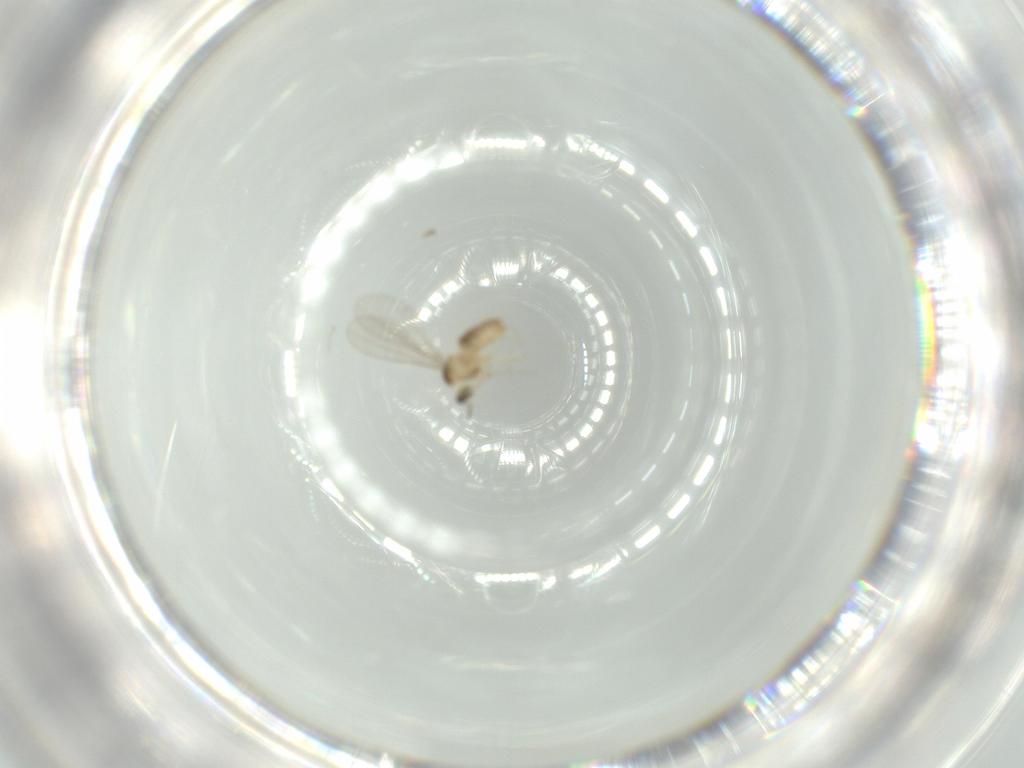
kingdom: Animalia
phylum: Arthropoda
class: Insecta
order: Diptera
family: Cecidomyiidae
